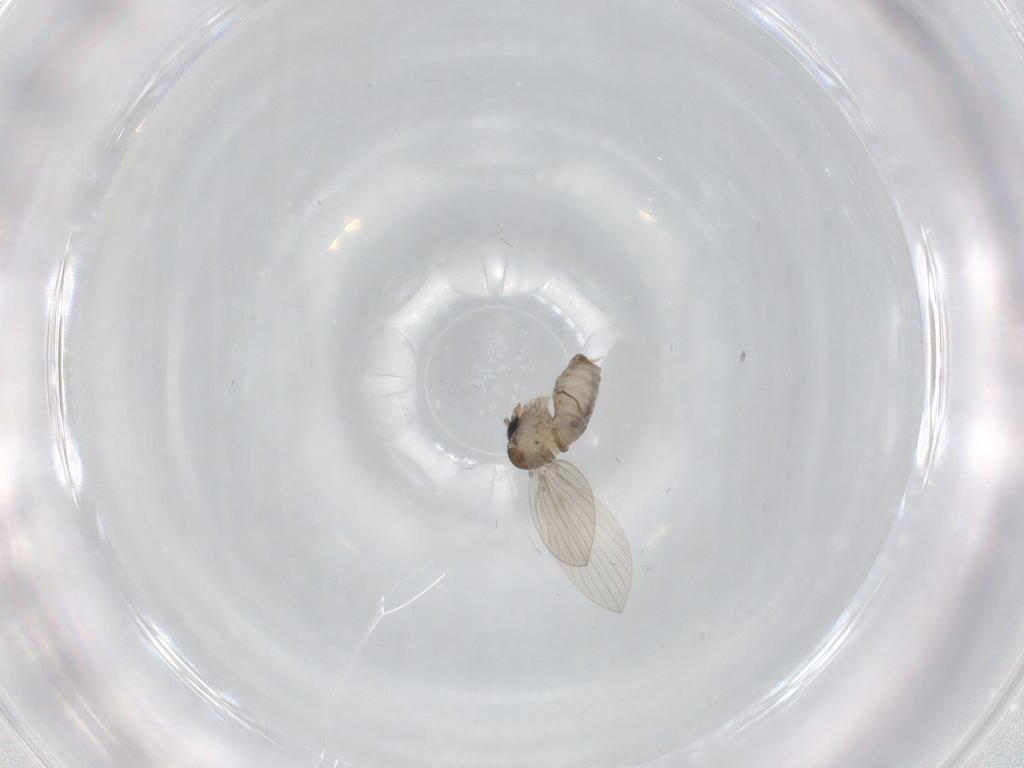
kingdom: Animalia
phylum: Arthropoda
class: Insecta
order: Diptera
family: Psychodidae
